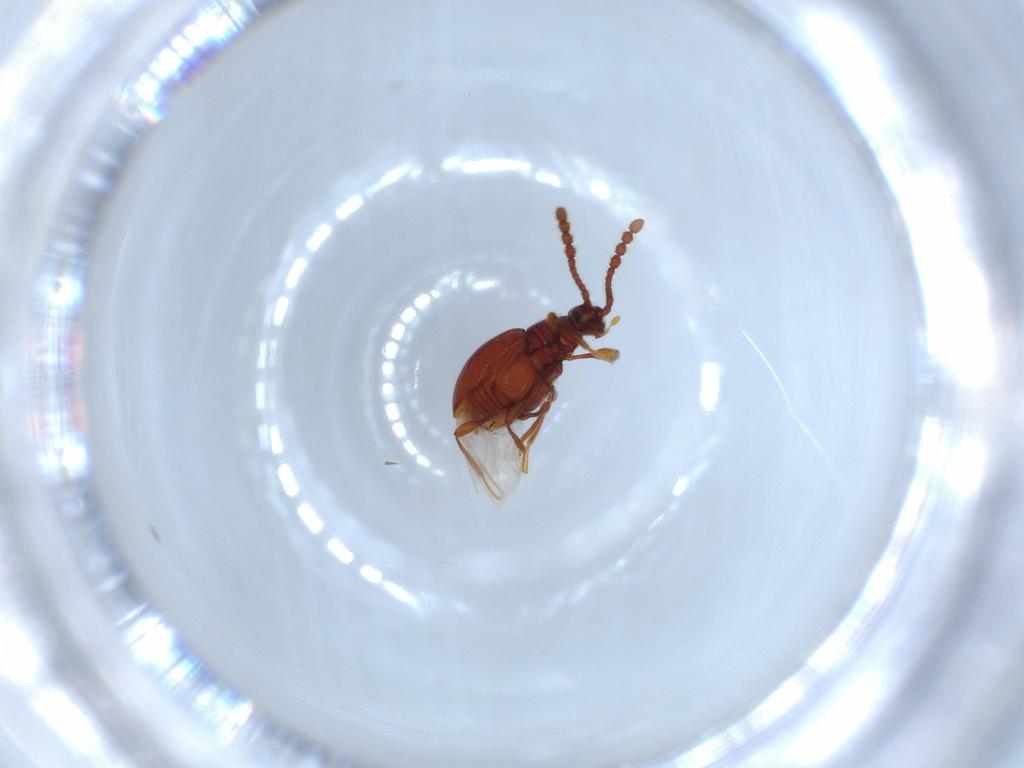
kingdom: Animalia
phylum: Arthropoda
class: Insecta
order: Coleoptera
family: Staphylinidae
